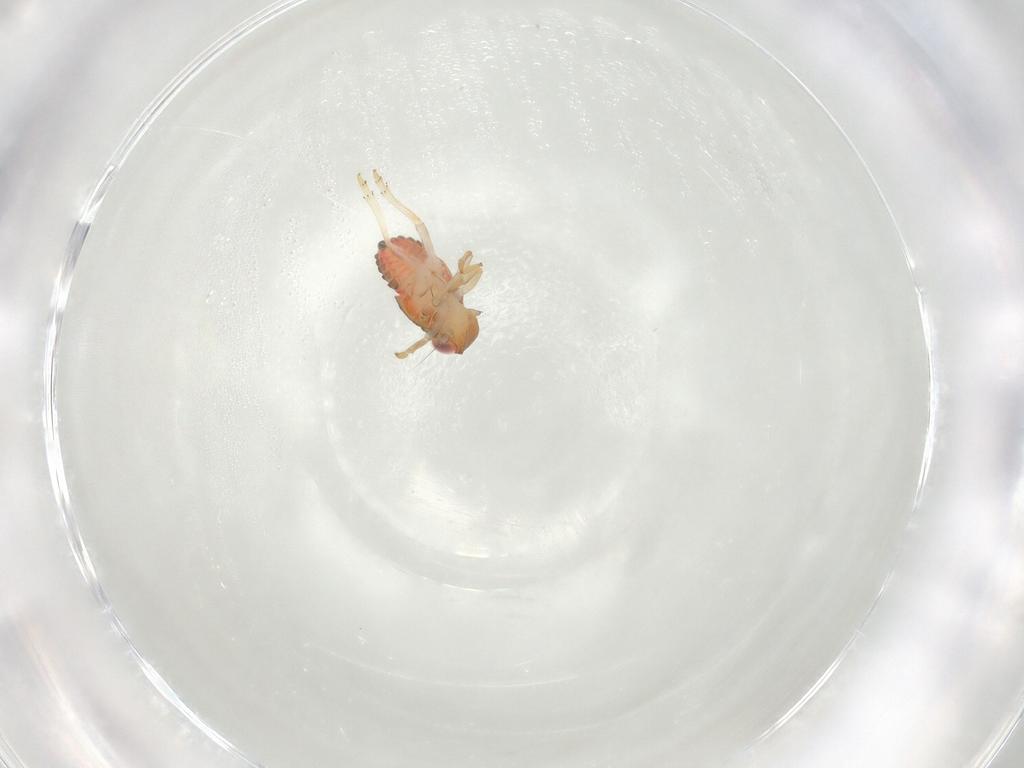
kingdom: Animalia
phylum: Arthropoda
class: Insecta
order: Hemiptera
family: Issidae
